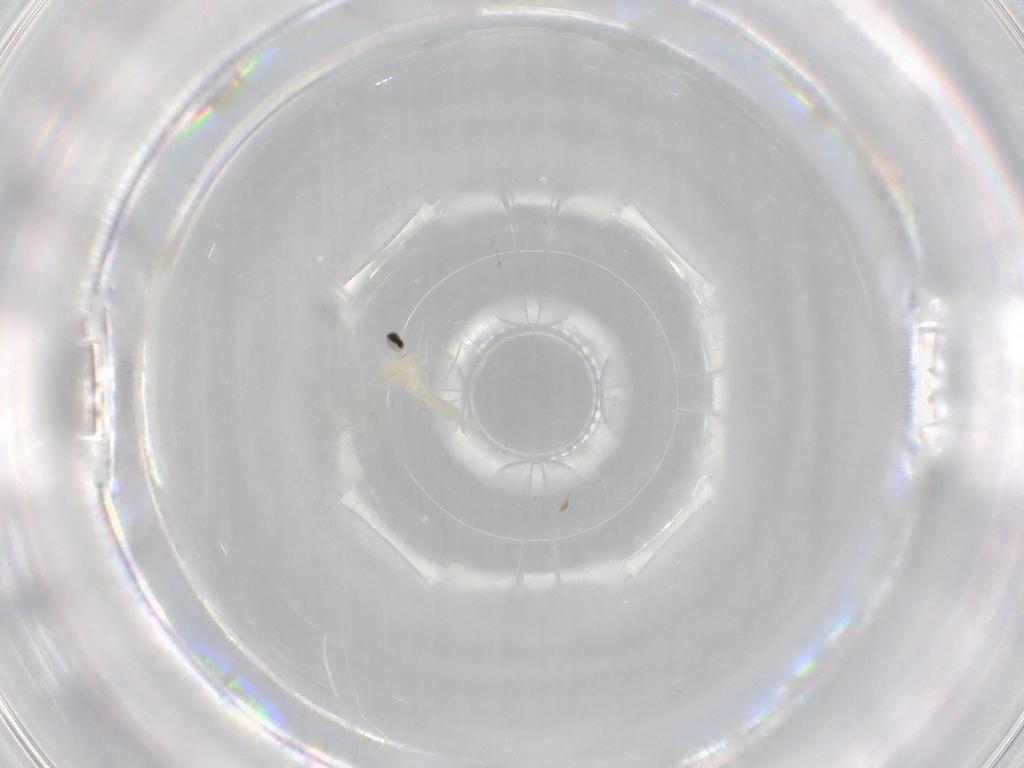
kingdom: Animalia
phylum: Arthropoda
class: Insecta
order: Diptera
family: Cecidomyiidae
